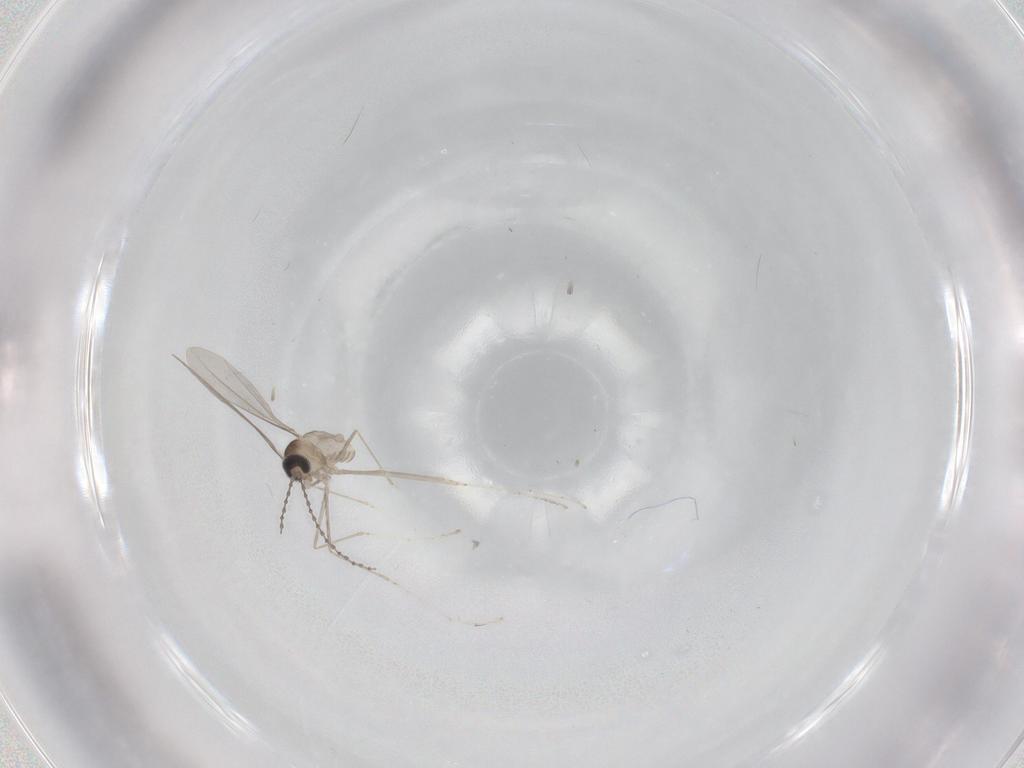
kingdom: Animalia
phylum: Arthropoda
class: Insecta
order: Diptera
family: Cecidomyiidae
